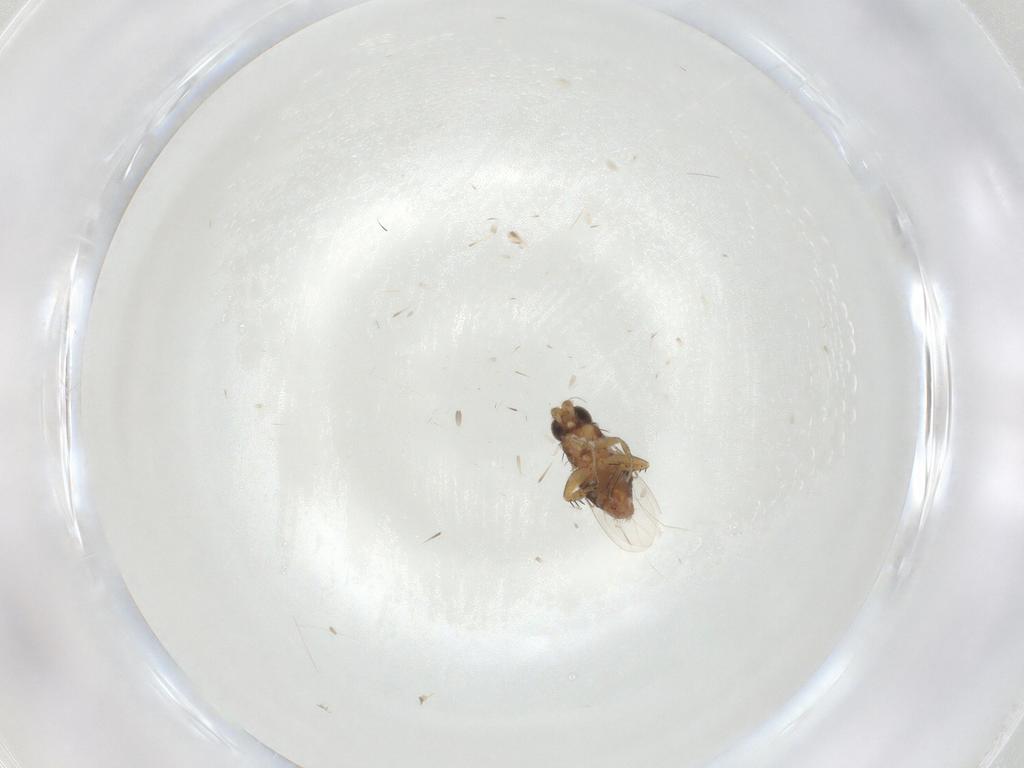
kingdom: Animalia
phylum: Arthropoda
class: Insecta
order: Diptera
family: Phoridae
